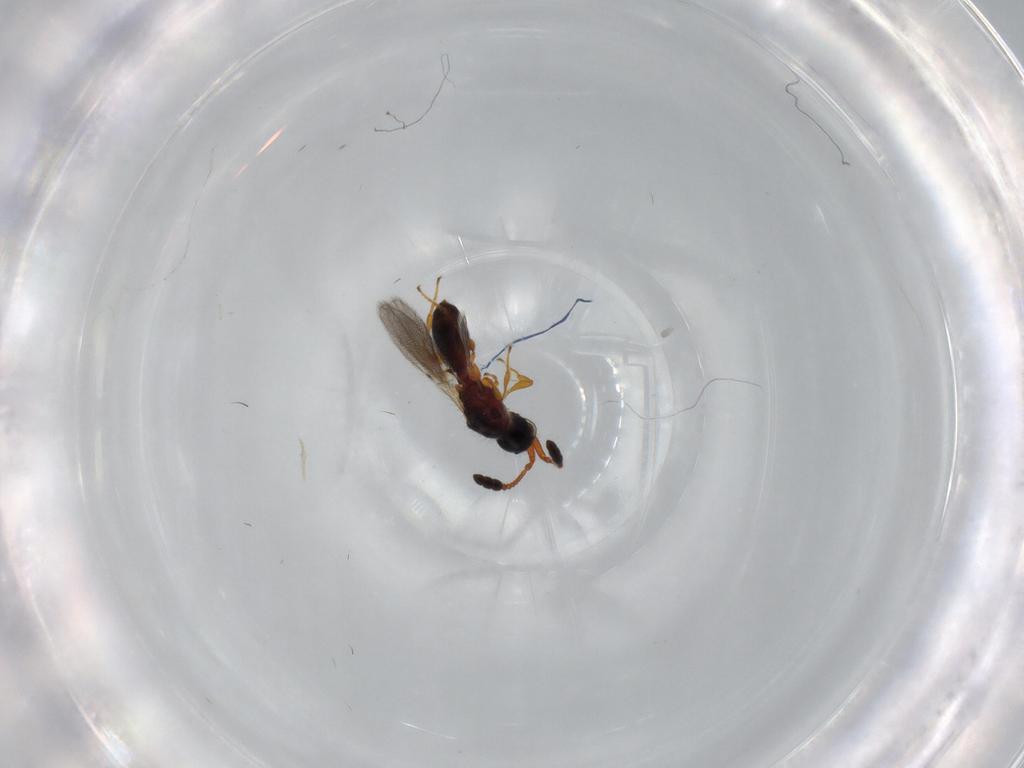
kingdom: Animalia
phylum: Arthropoda
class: Insecta
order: Hymenoptera
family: Diapriidae
